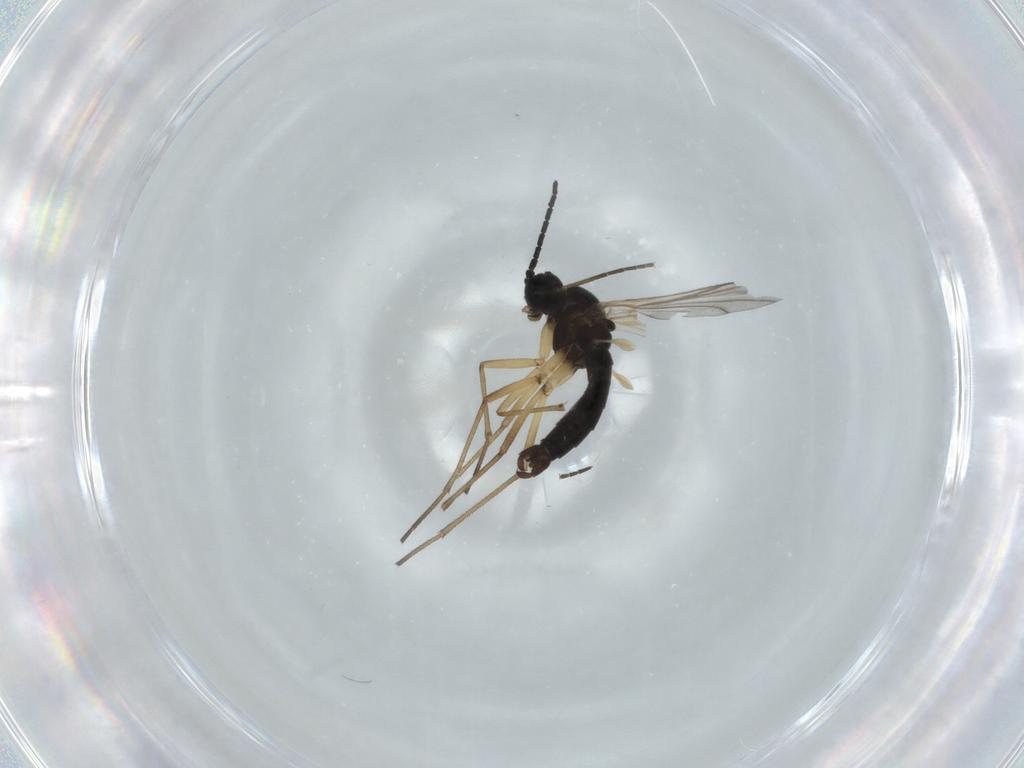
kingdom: Animalia
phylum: Arthropoda
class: Insecta
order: Diptera
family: Sciaridae
